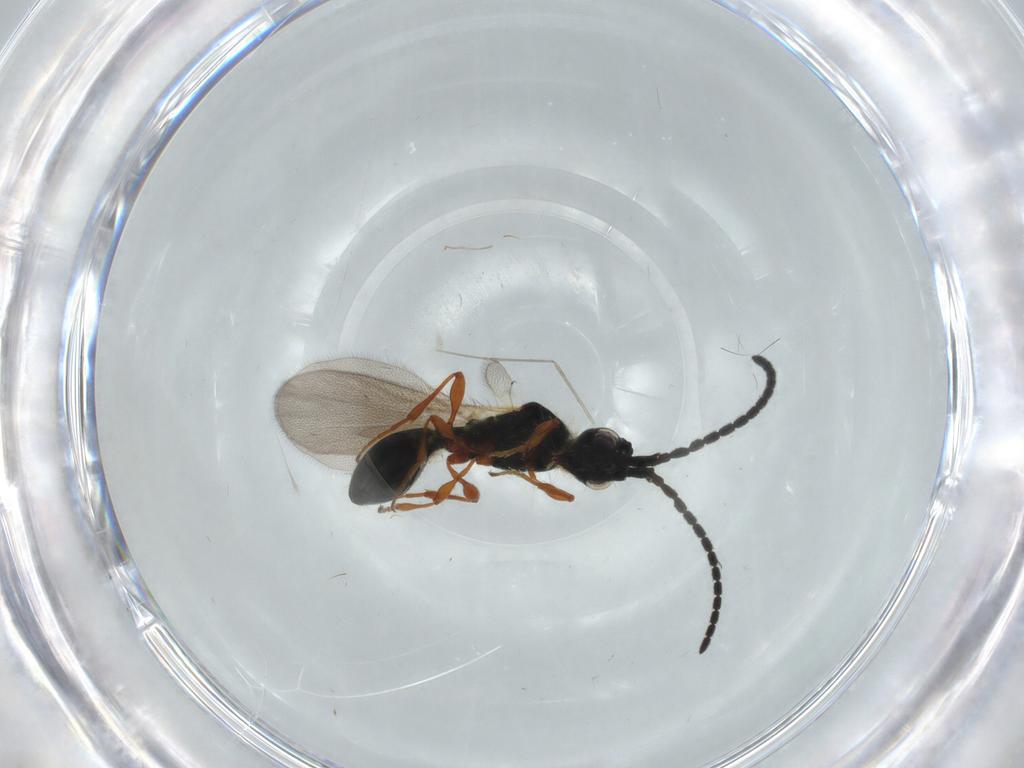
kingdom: Animalia
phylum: Arthropoda
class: Insecta
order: Hymenoptera
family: Diapriidae
